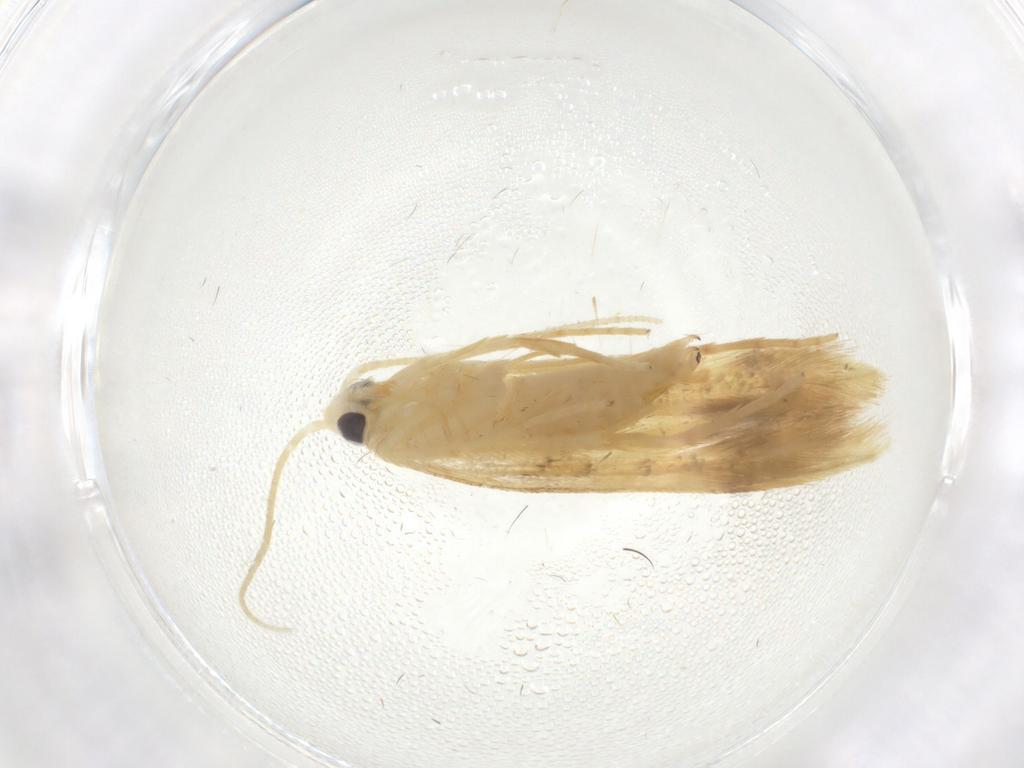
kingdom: Animalia
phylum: Arthropoda
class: Insecta
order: Lepidoptera
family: Oecophoridae
